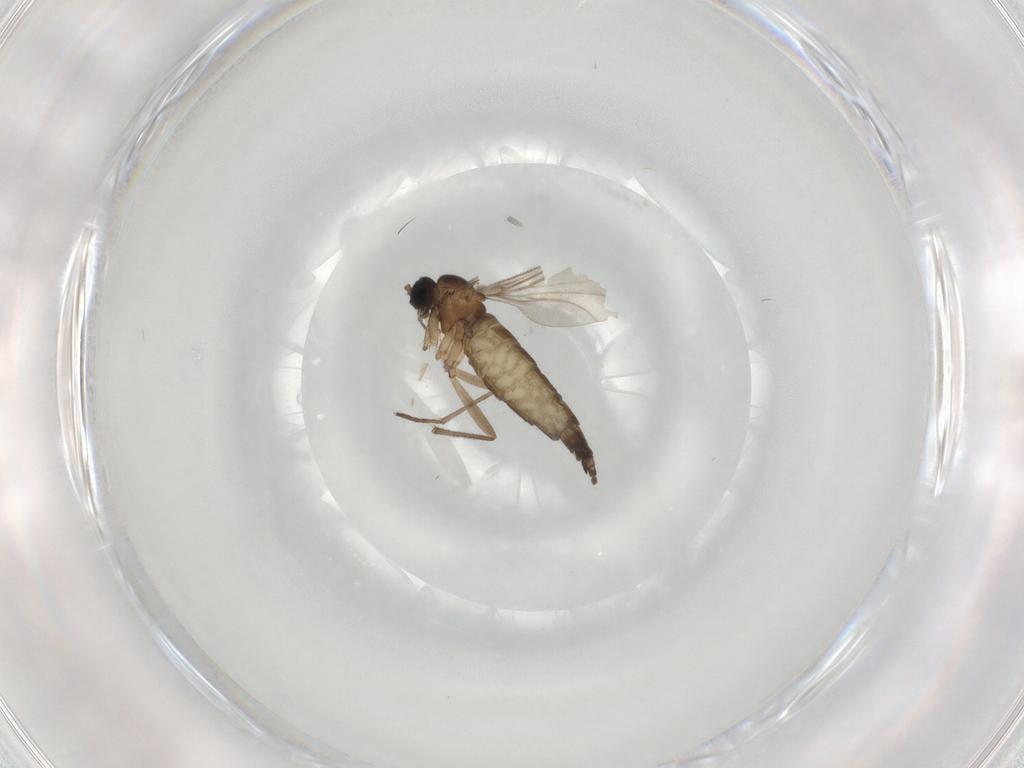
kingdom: Animalia
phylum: Arthropoda
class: Insecta
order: Diptera
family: Sciaridae
